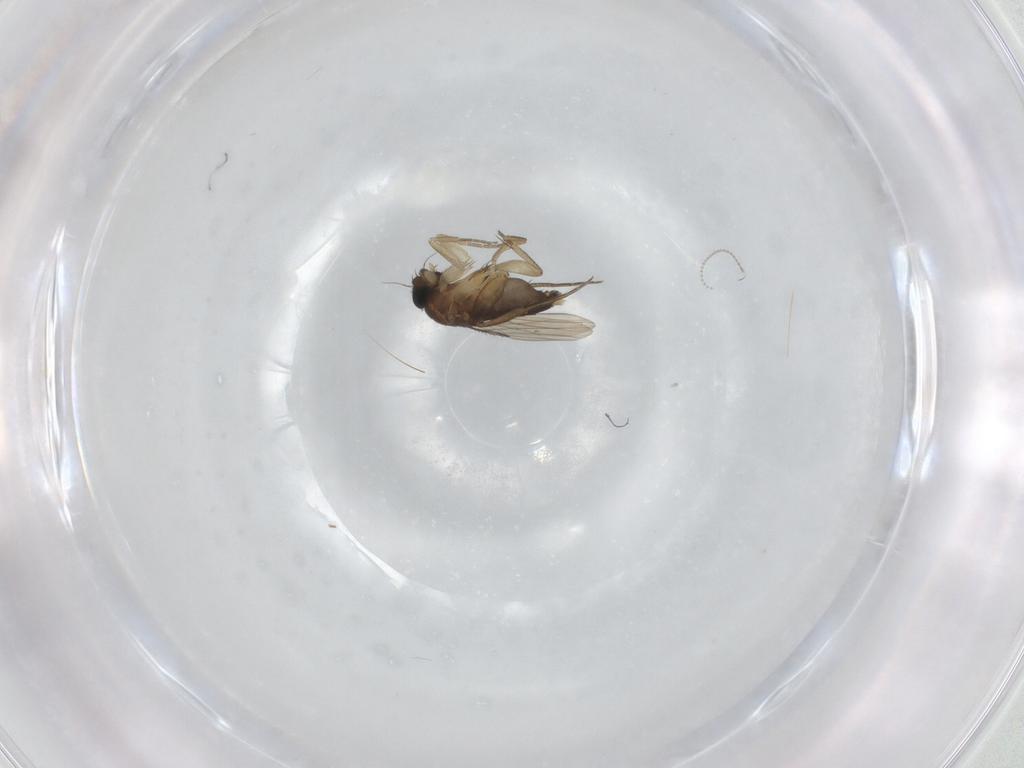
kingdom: Animalia
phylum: Arthropoda
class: Insecta
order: Diptera
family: Phoridae
